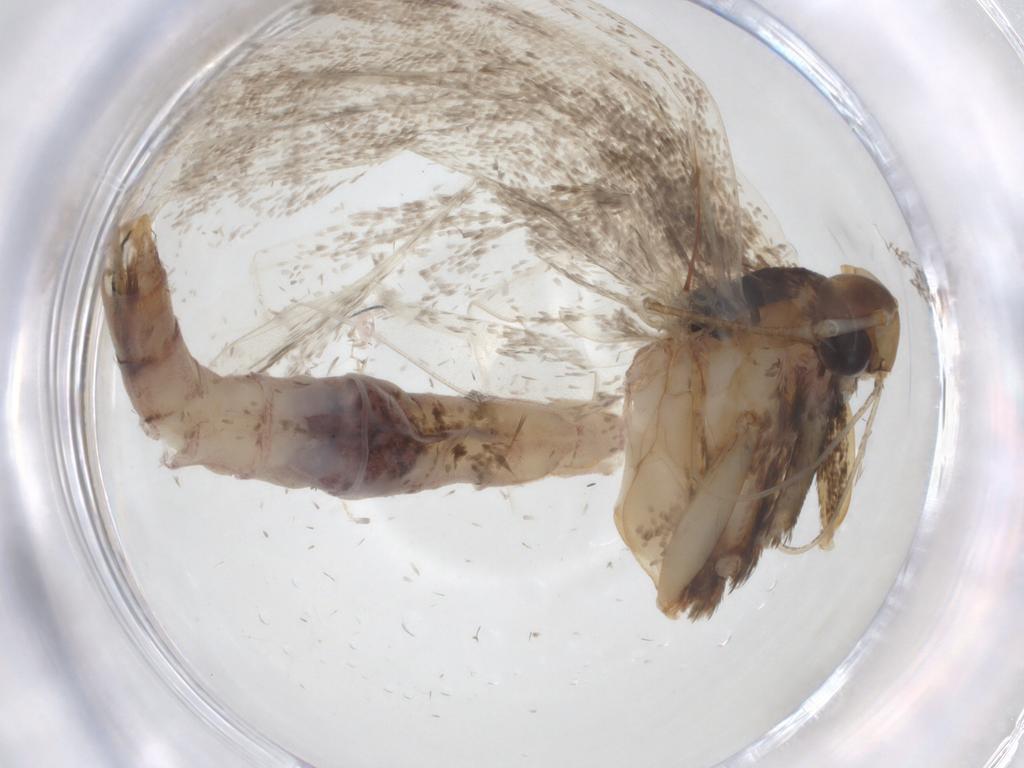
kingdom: Animalia
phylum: Arthropoda
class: Insecta
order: Lepidoptera
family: Gelechiidae
